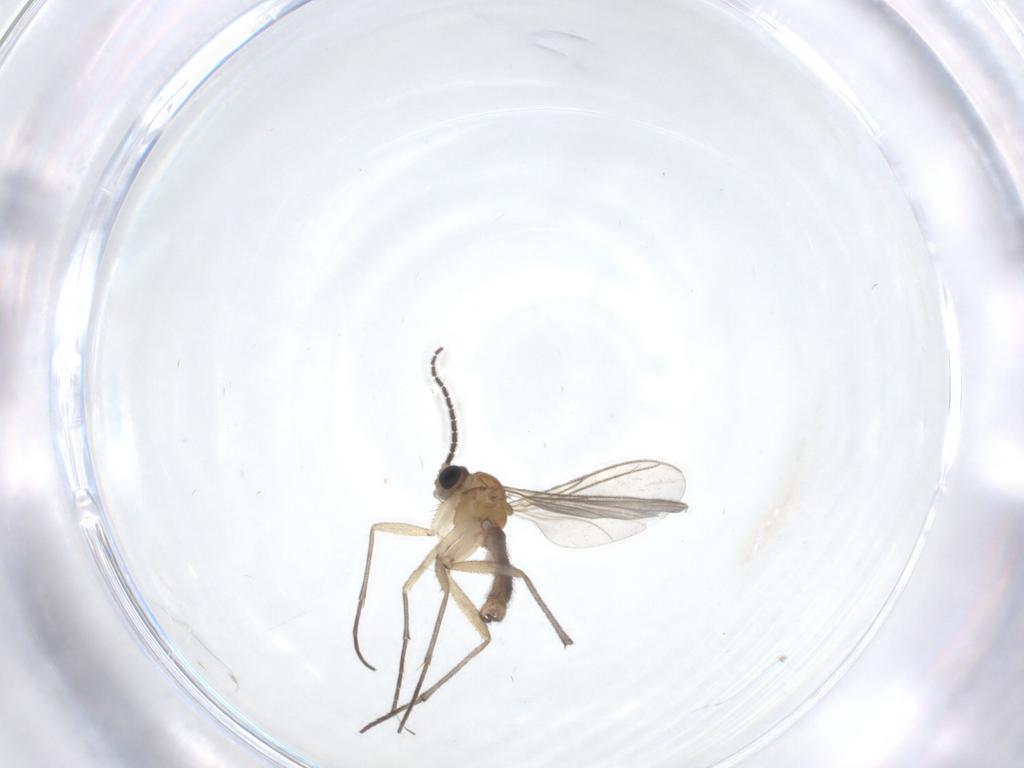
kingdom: Animalia
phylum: Arthropoda
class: Insecta
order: Diptera
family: Sciaridae
